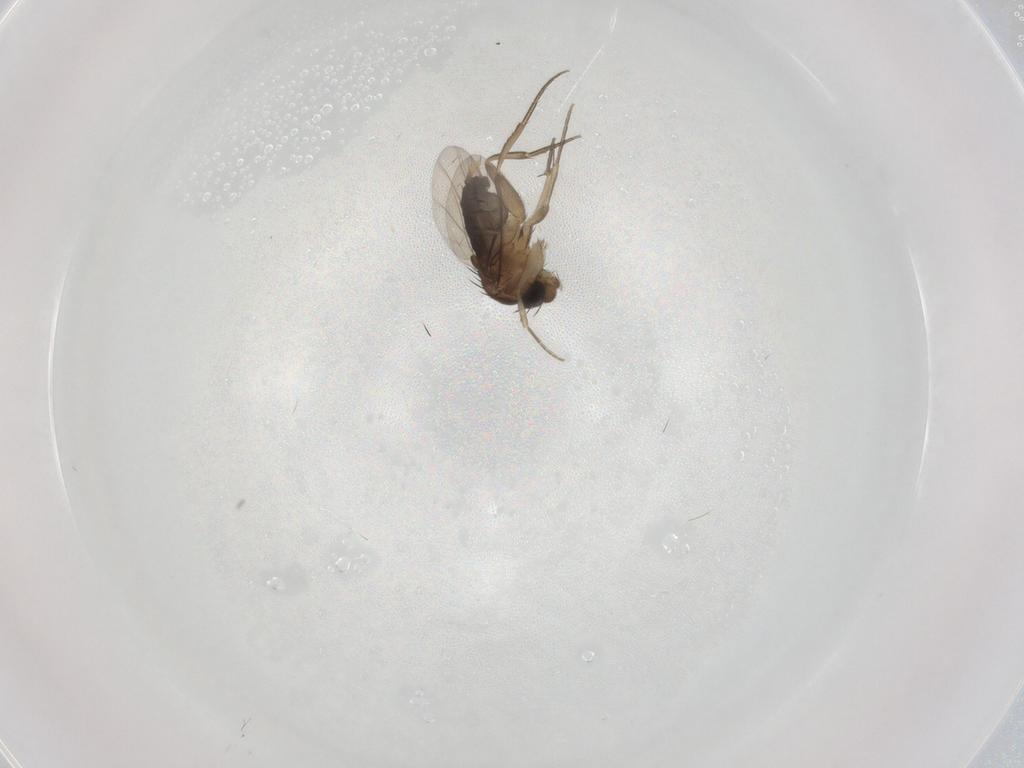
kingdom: Animalia
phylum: Arthropoda
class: Insecta
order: Diptera
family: Phoridae
